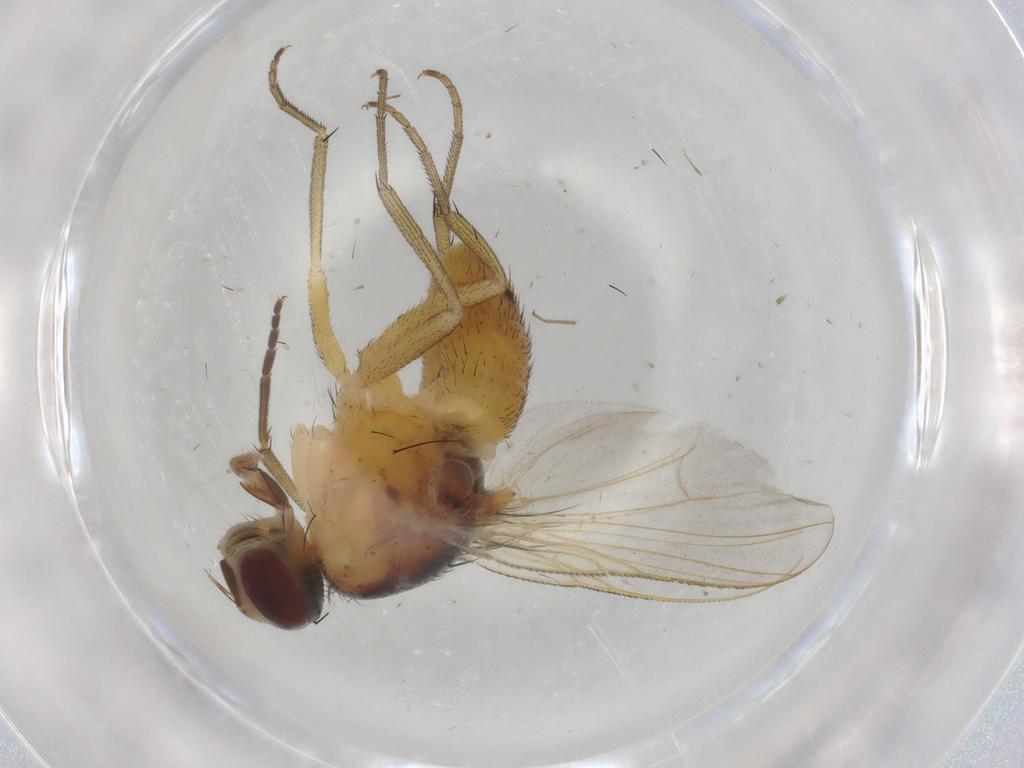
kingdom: Animalia
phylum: Arthropoda
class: Insecta
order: Diptera
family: Muscidae
